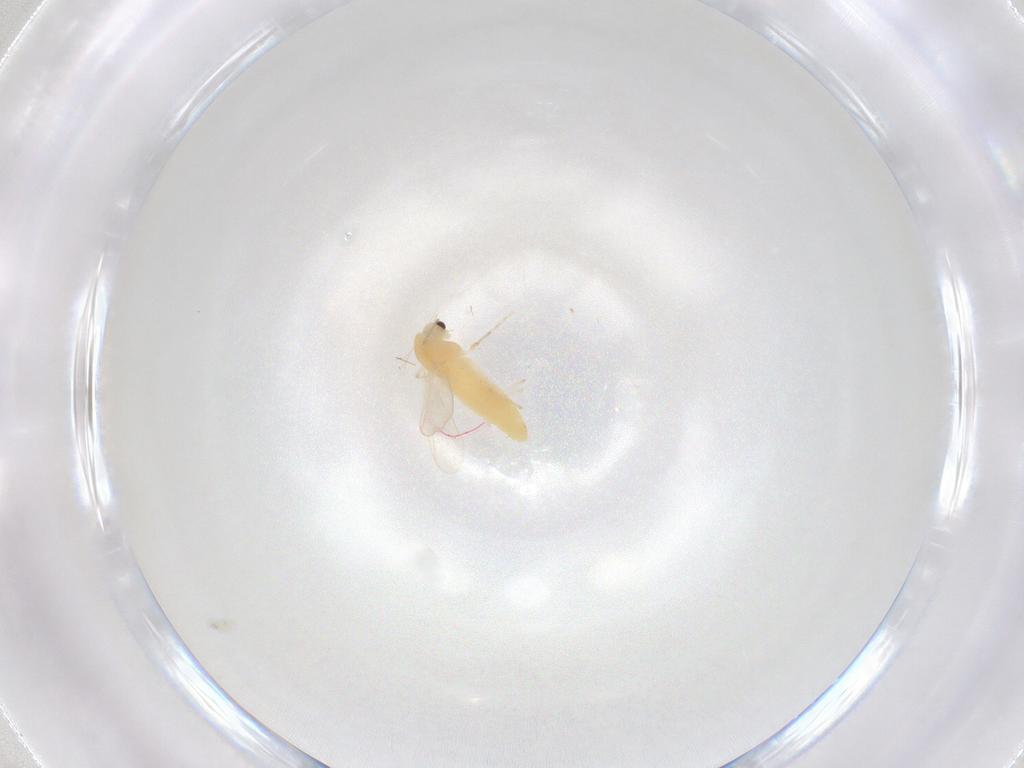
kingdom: Animalia
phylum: Arthropoda
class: Insecta
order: Diptera
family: Chironomidae
